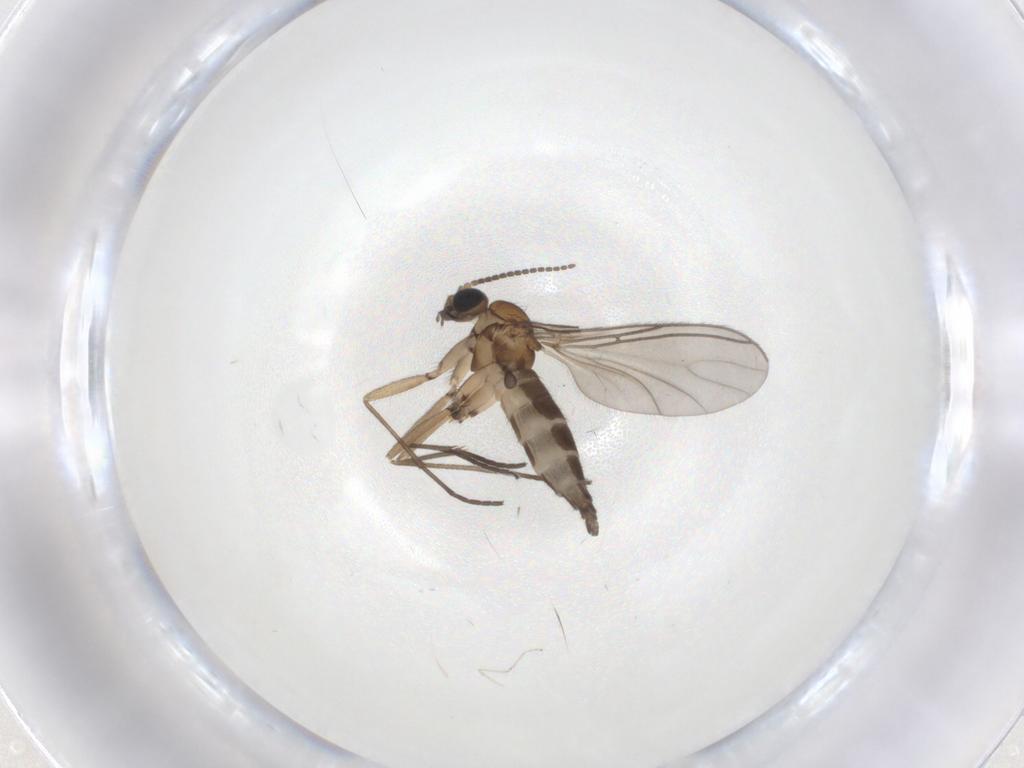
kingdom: Animalia
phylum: Arthropoda
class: Insecta
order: Diptera
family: Sciaridae
